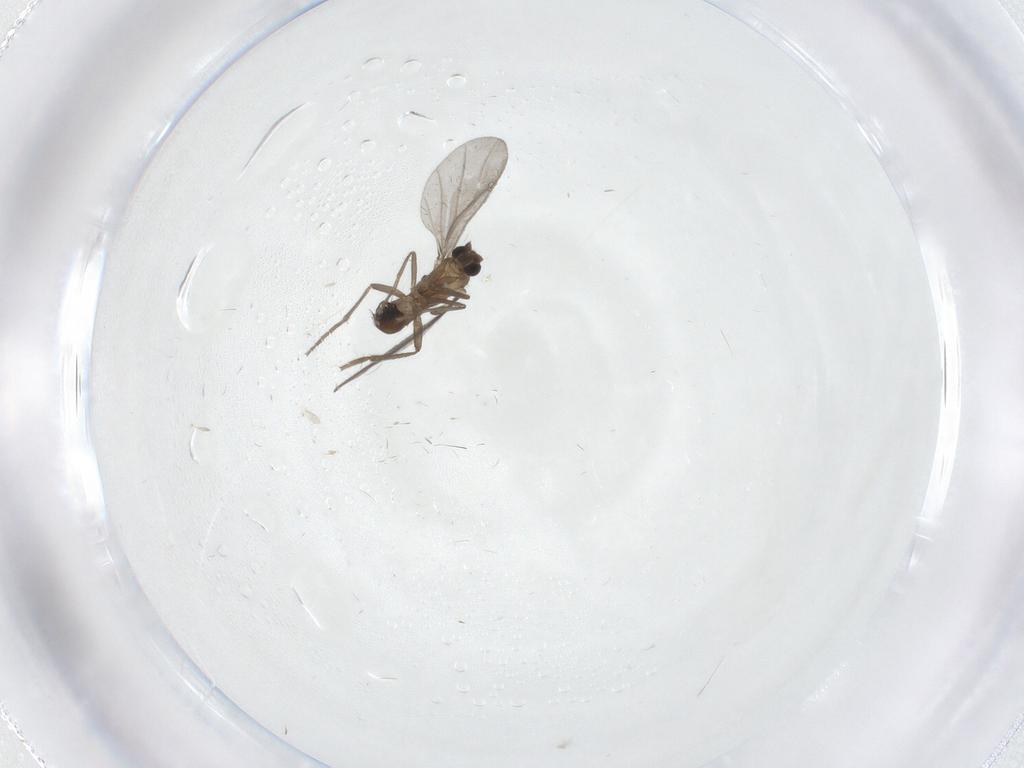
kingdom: Animalia
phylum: Arthropoda
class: Insecta
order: Diptera
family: Phoridae
